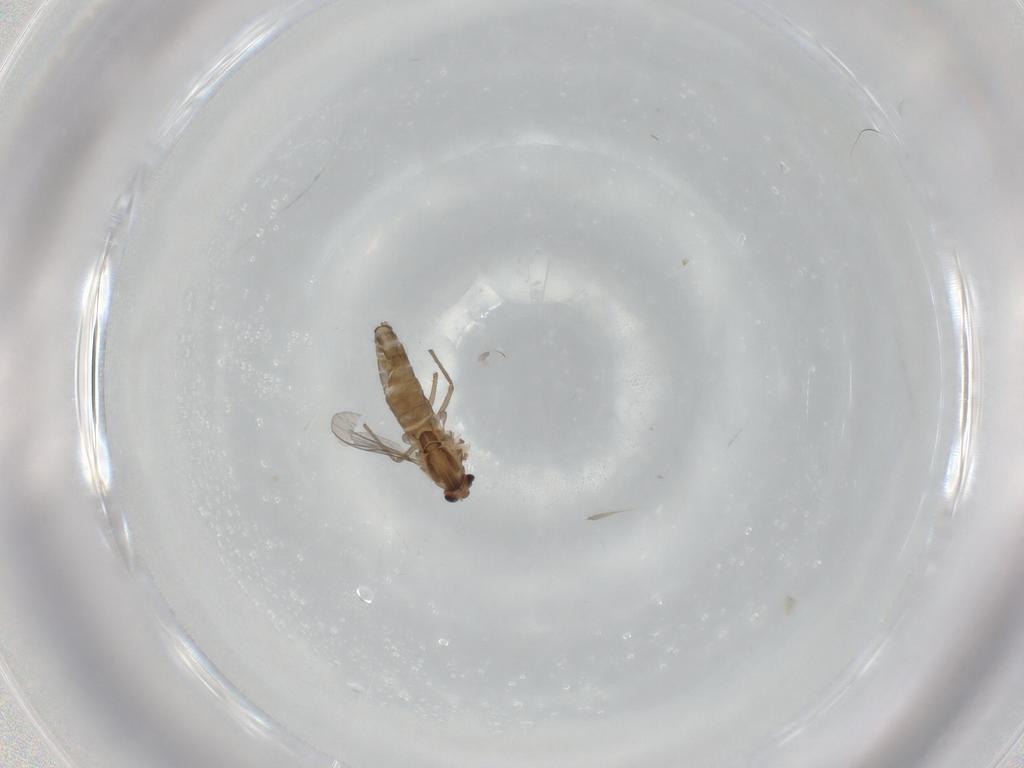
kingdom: Animalia
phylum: Arthropoda
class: Insecta
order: Diptera
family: Chironomidae
